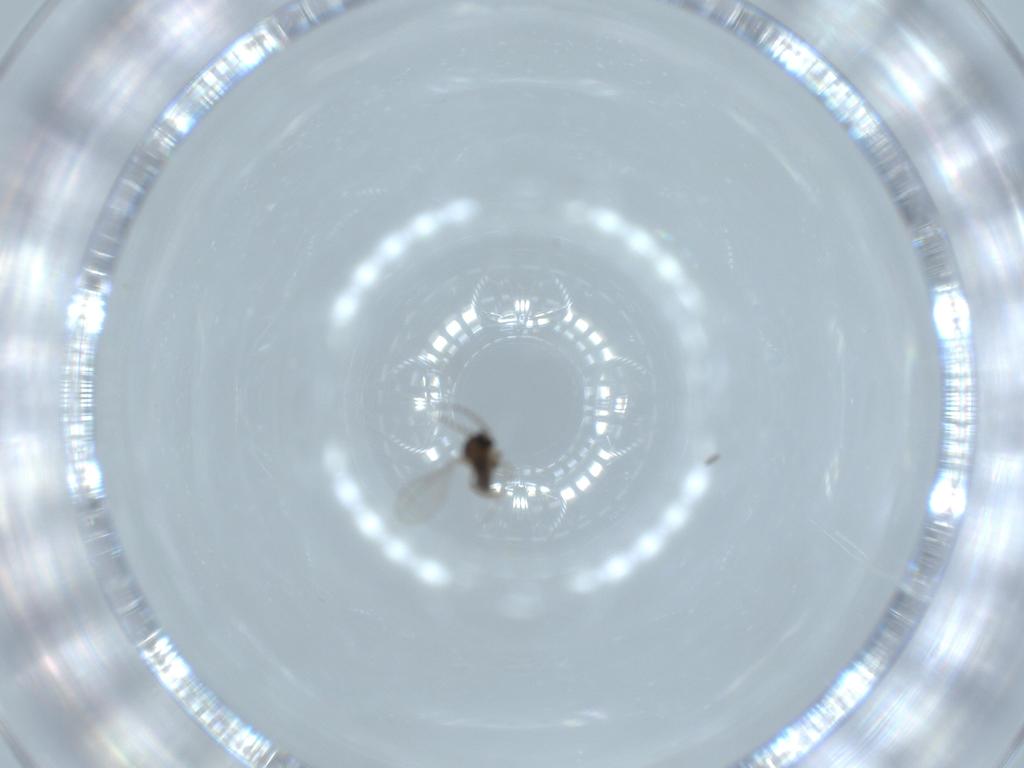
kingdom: Animalia
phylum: Arthropoda
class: Insecta
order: Diptera
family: Cecidomyiidae
